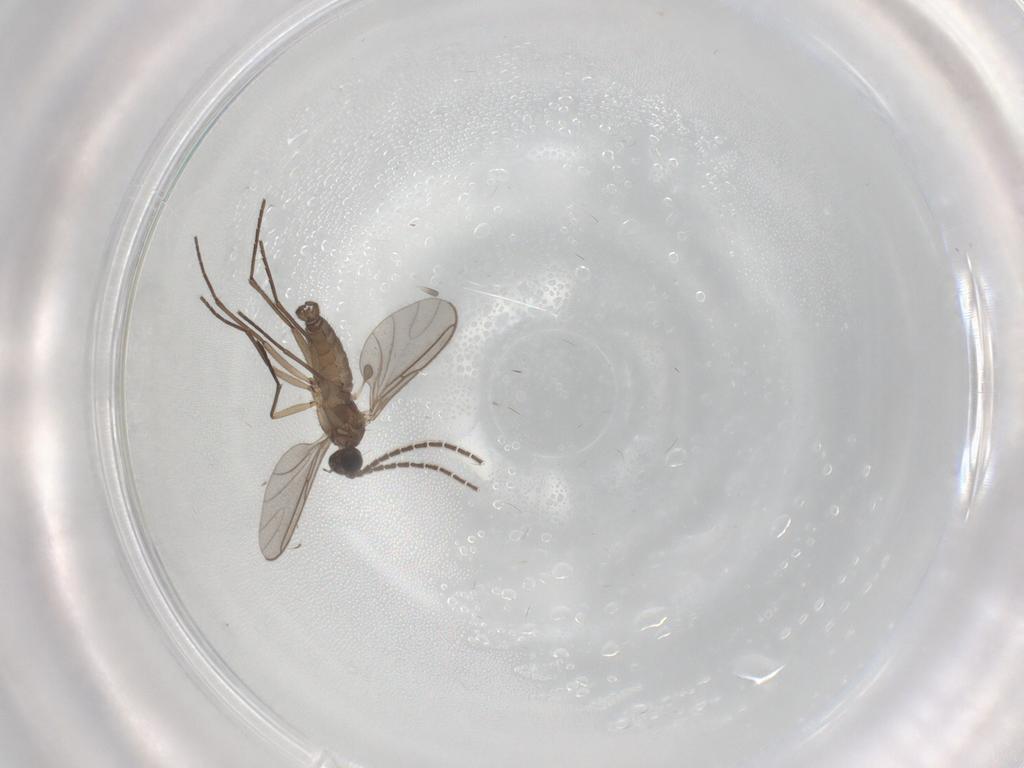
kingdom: Animalia
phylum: Arthropoda
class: Insecta
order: Diptera
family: Sciaridae
